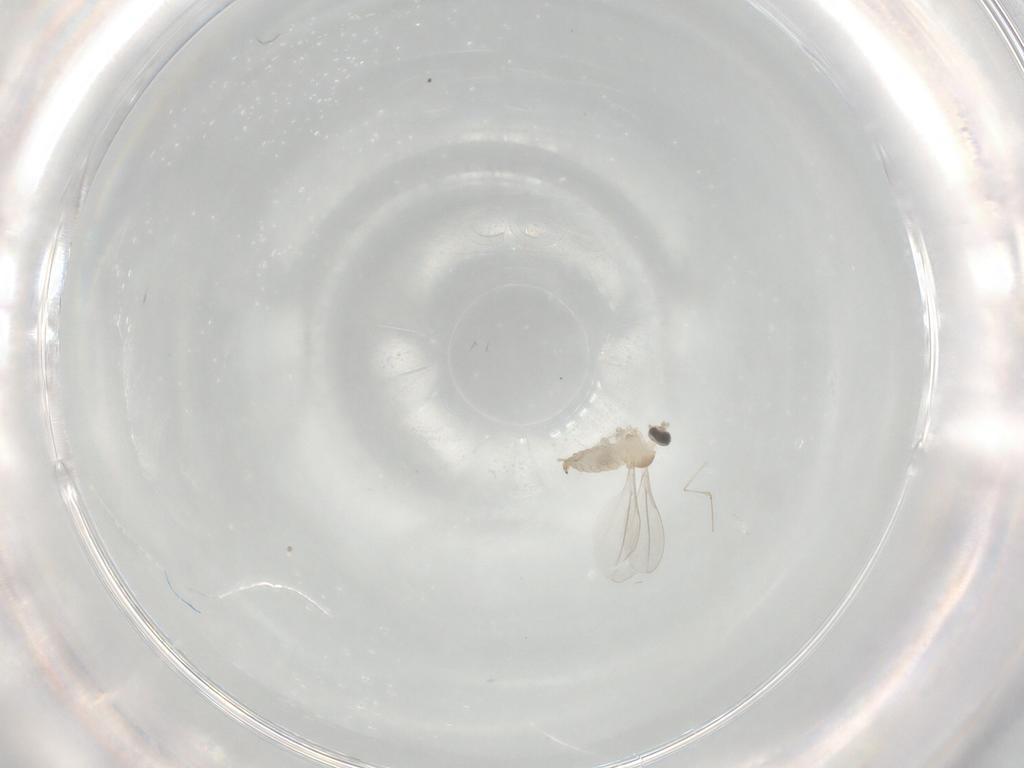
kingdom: Animalia
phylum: Arthropoda
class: Insecta
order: Diptera
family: Cecidomyiidae
